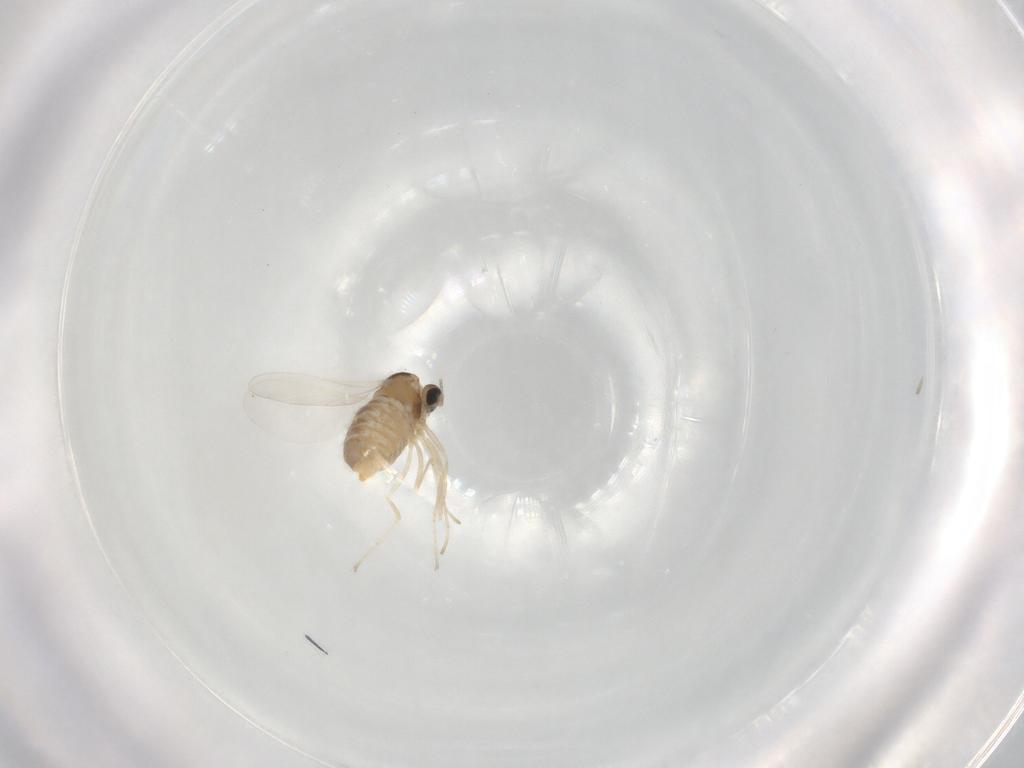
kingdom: Animalia
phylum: Arthropoda
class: Insecta
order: Diptera
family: Cecidomyiidae
